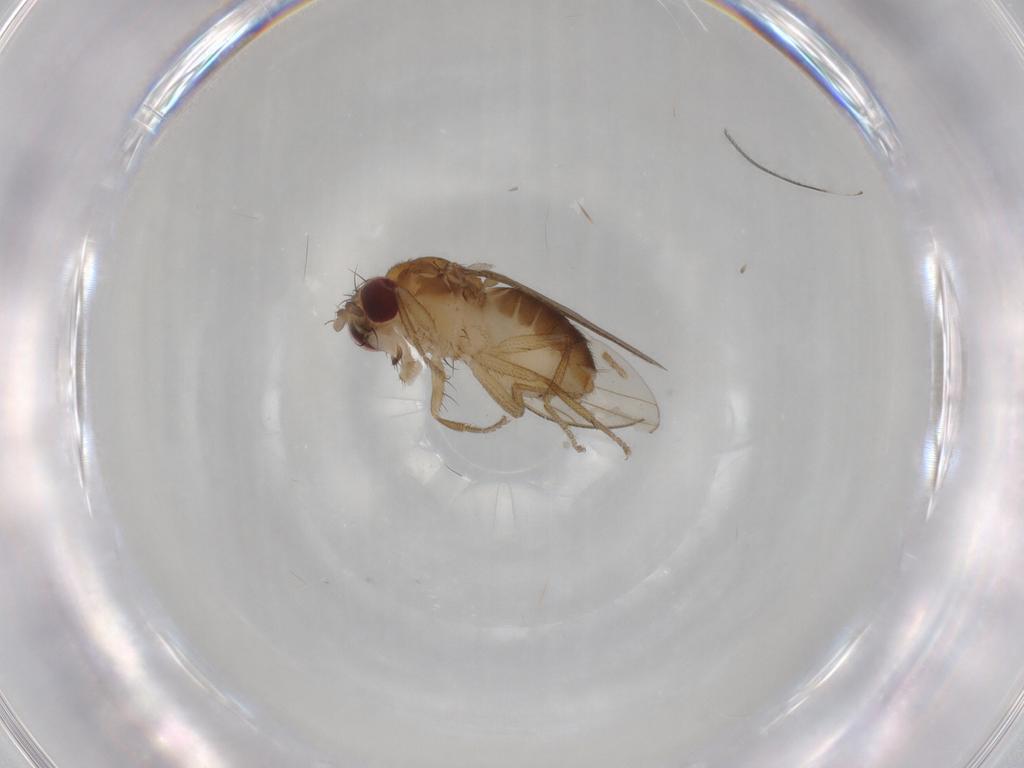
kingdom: Animalia
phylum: Arthropoda
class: Insecta
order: Diptera
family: Drosophilidae
